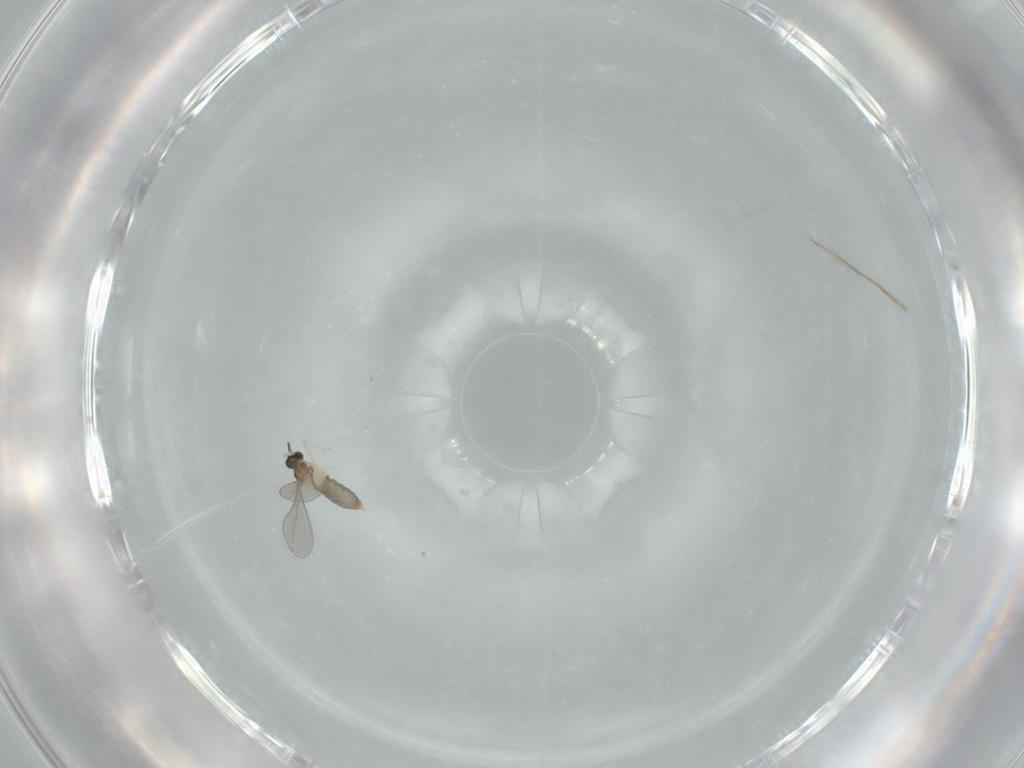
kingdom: Animalia
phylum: Arthropoda
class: Insecta
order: Diptera
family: Cecidomyiidae
